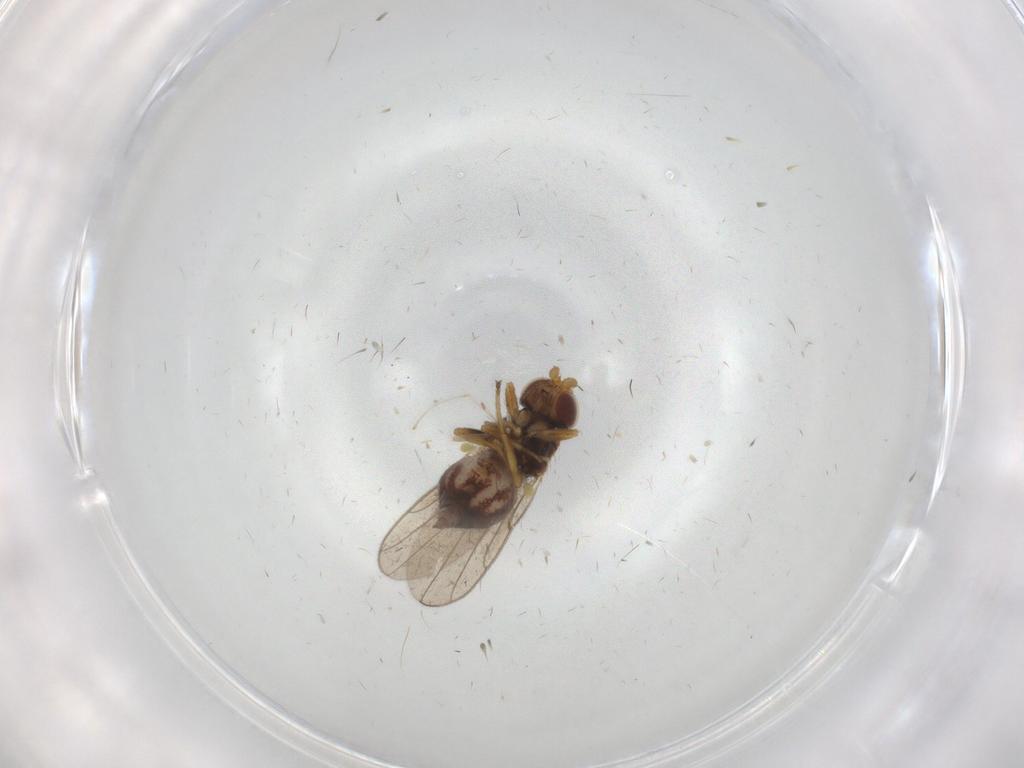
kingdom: Animalia
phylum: Arthropoda
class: Insecta
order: Diptera
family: Chloropidae
